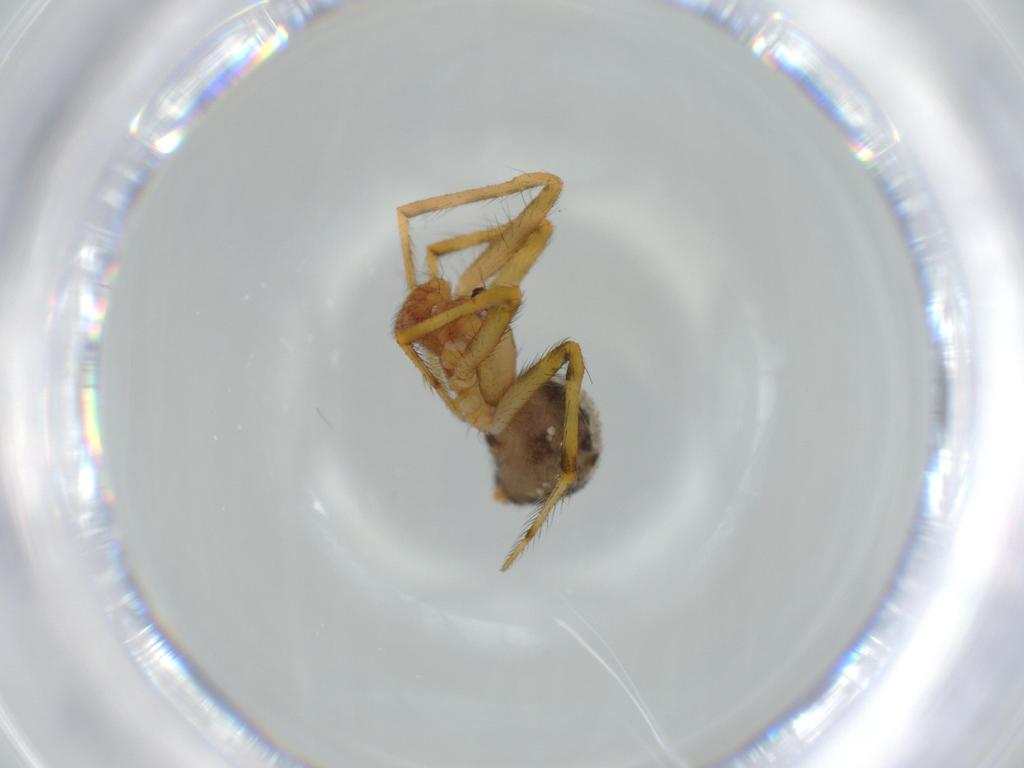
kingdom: Animalia
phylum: Arthropoda
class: Arachnida
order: Araneae
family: Theridiidae
